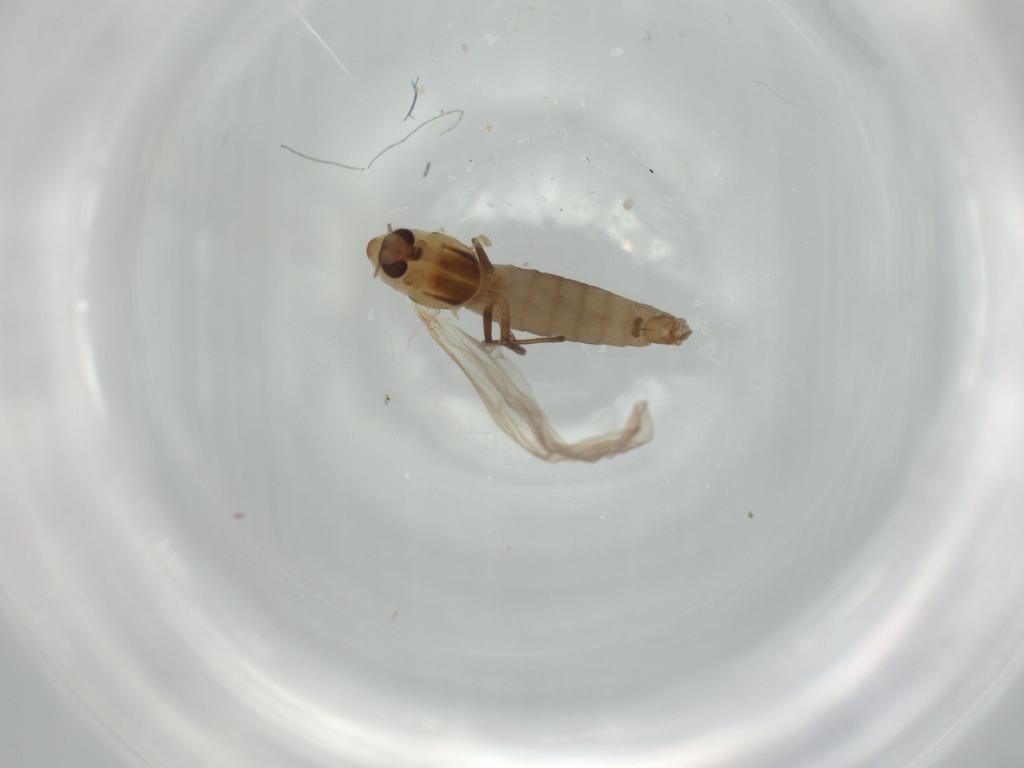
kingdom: Animalia
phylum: Arthropoda
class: Insecta
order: Diptera
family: Chironomidae
